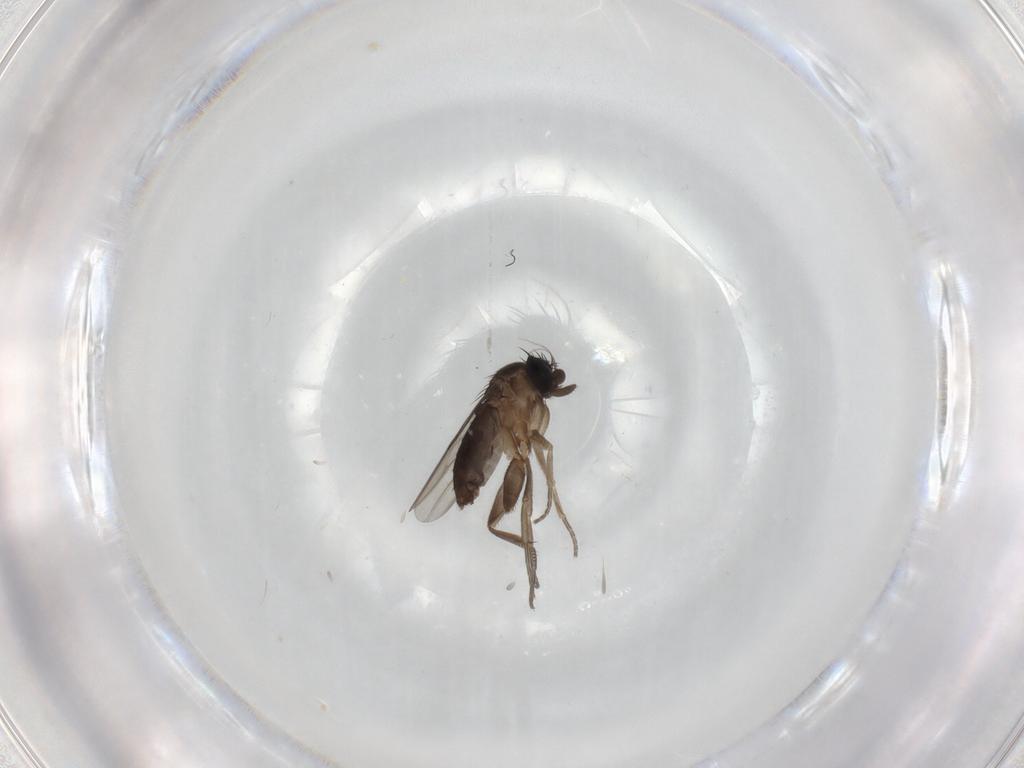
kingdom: Animalia
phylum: Arthropoda
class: Insecta
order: Diptera
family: Phoridae
